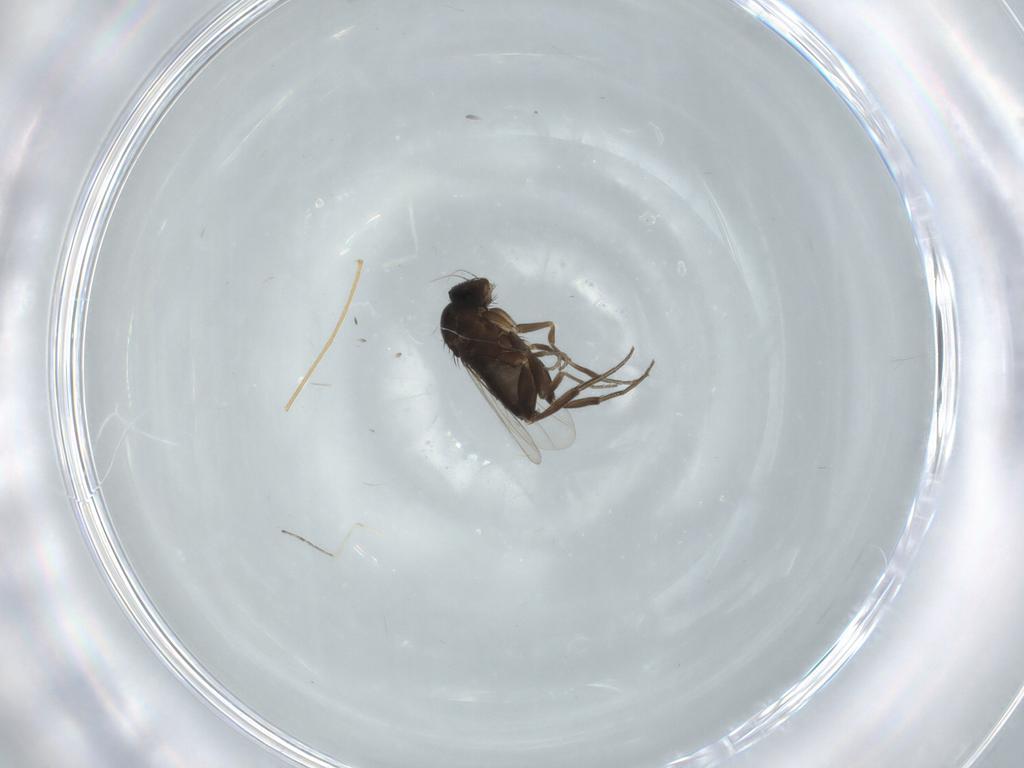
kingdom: Animalia
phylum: Arthropoda
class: Insecta
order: Diptera
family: Phoridae
